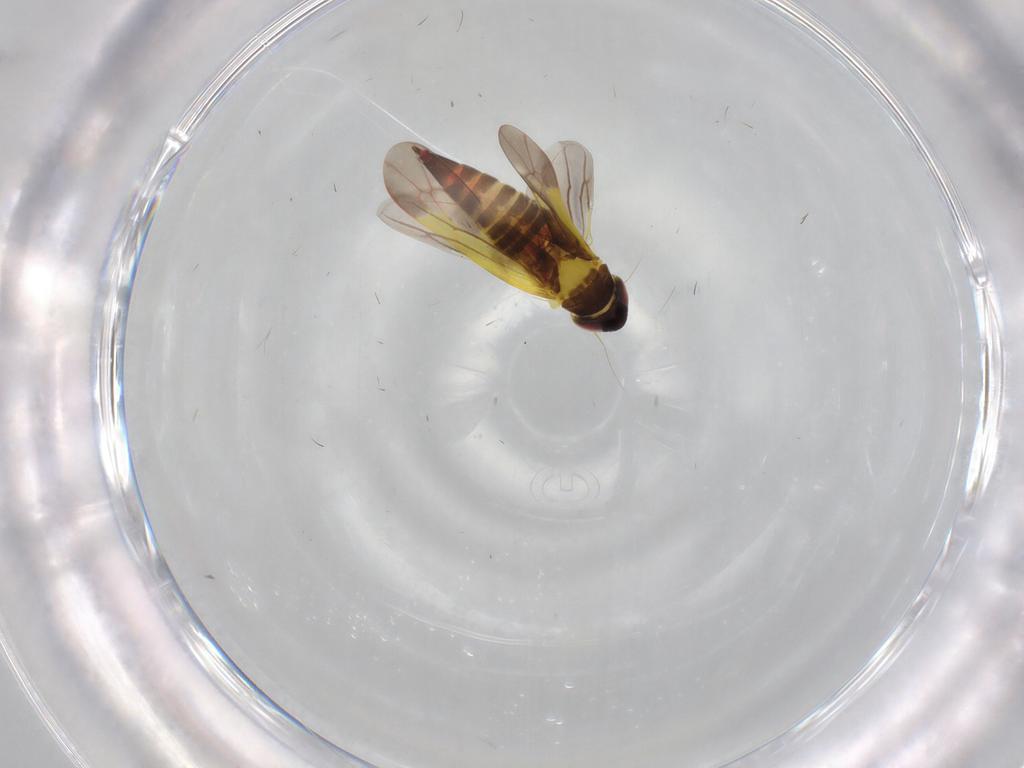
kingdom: Animalia
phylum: Arthropoda
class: Insecta
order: Hemiptera
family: Cicadellidae
